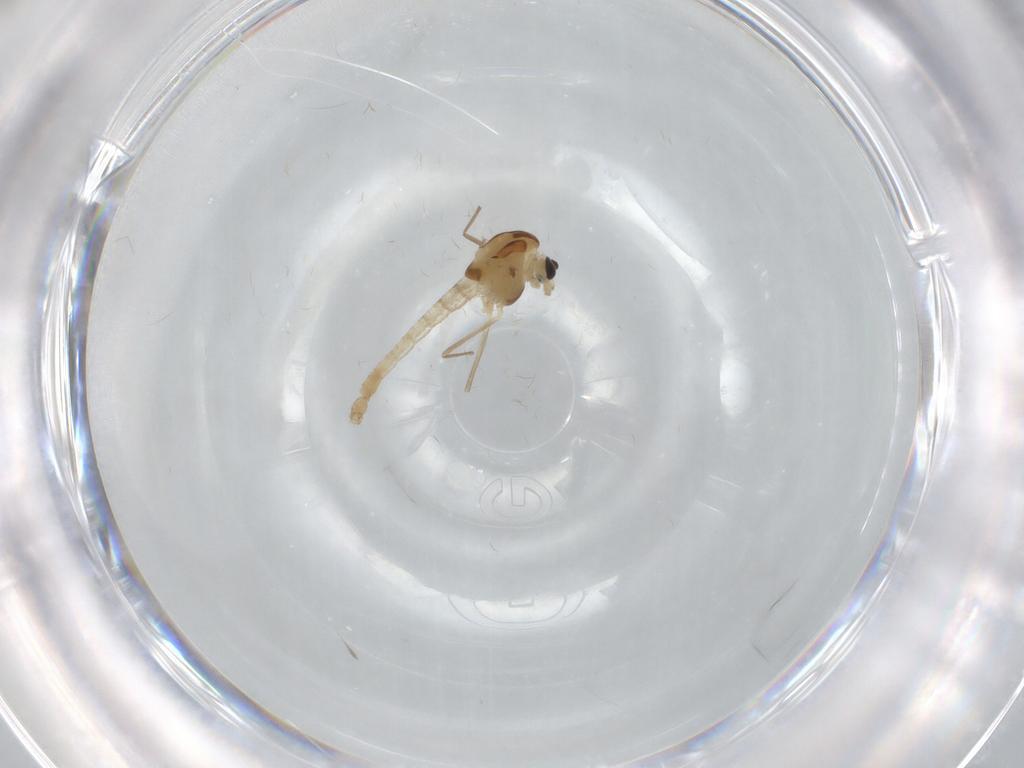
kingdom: Animalia
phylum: Arthropoda
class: Insecta
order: Diptera
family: Chironomidae
